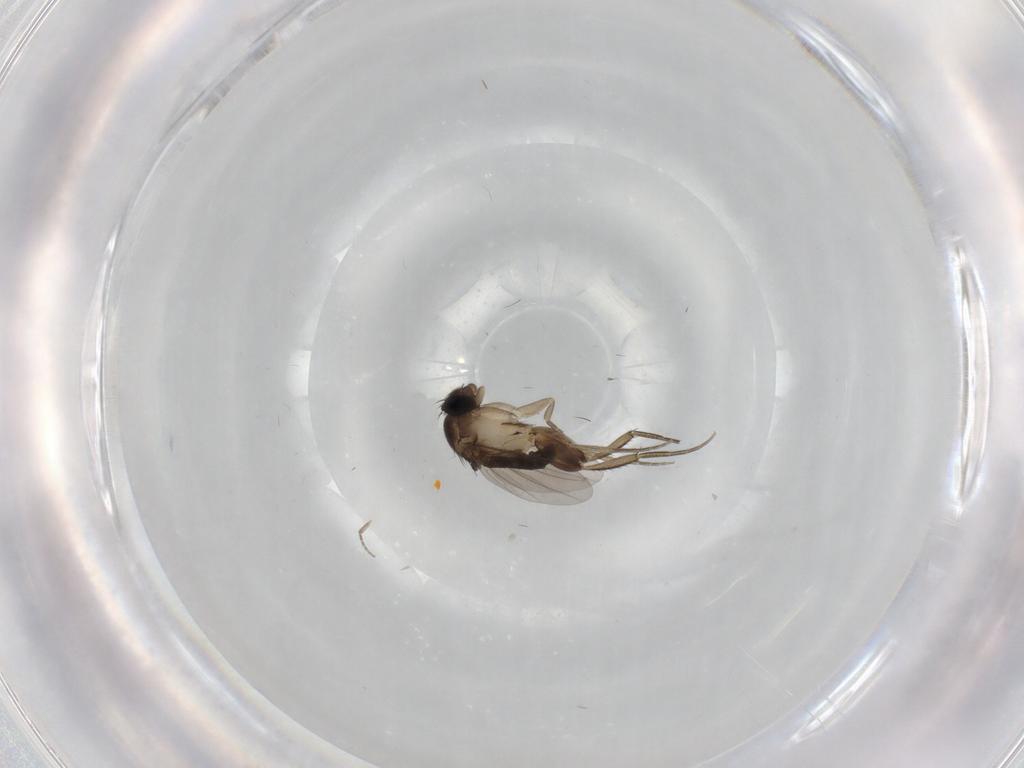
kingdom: Animalia
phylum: Arthropoda
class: Insecta
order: Diptera
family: Phoridae
